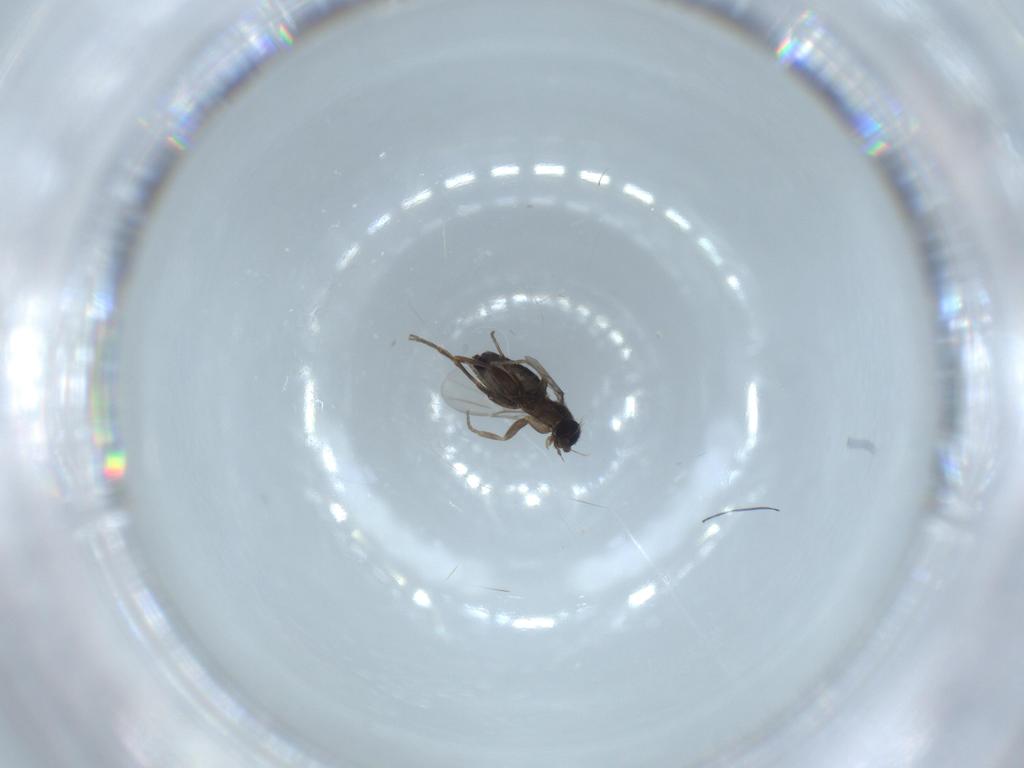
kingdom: Animalia
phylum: Arthropoda
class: Insecta
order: Diptera
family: Phoridae
